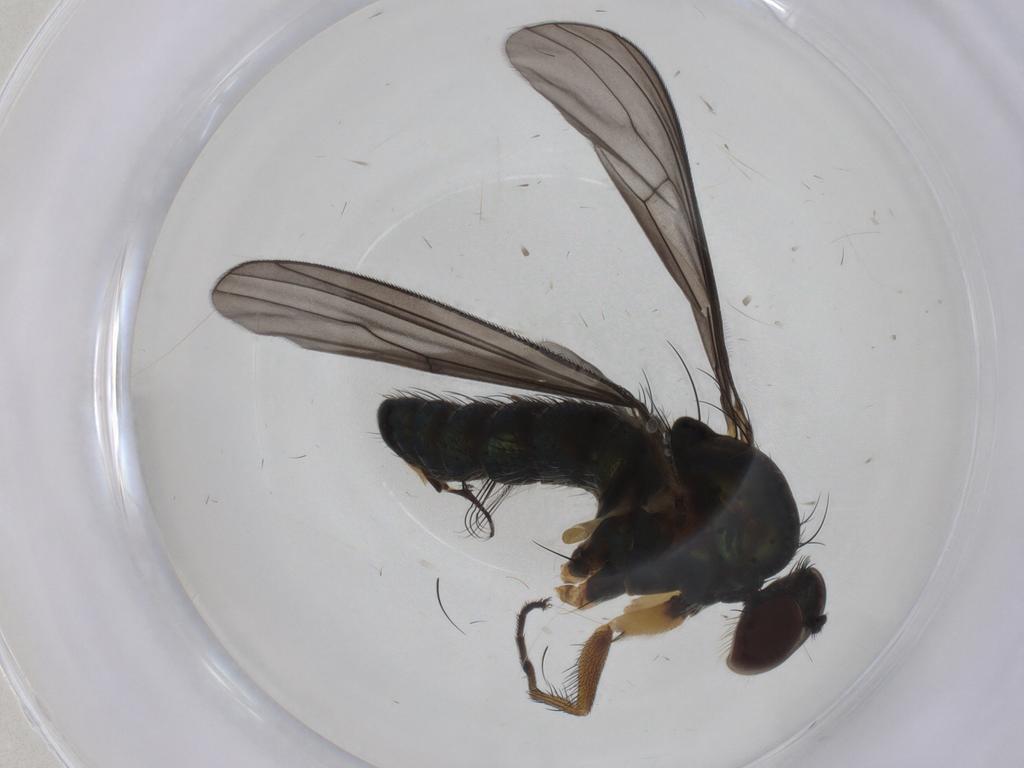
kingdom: Animalia
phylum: Arthropoda
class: Insecta
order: Diptera
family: Dolichopodidae
